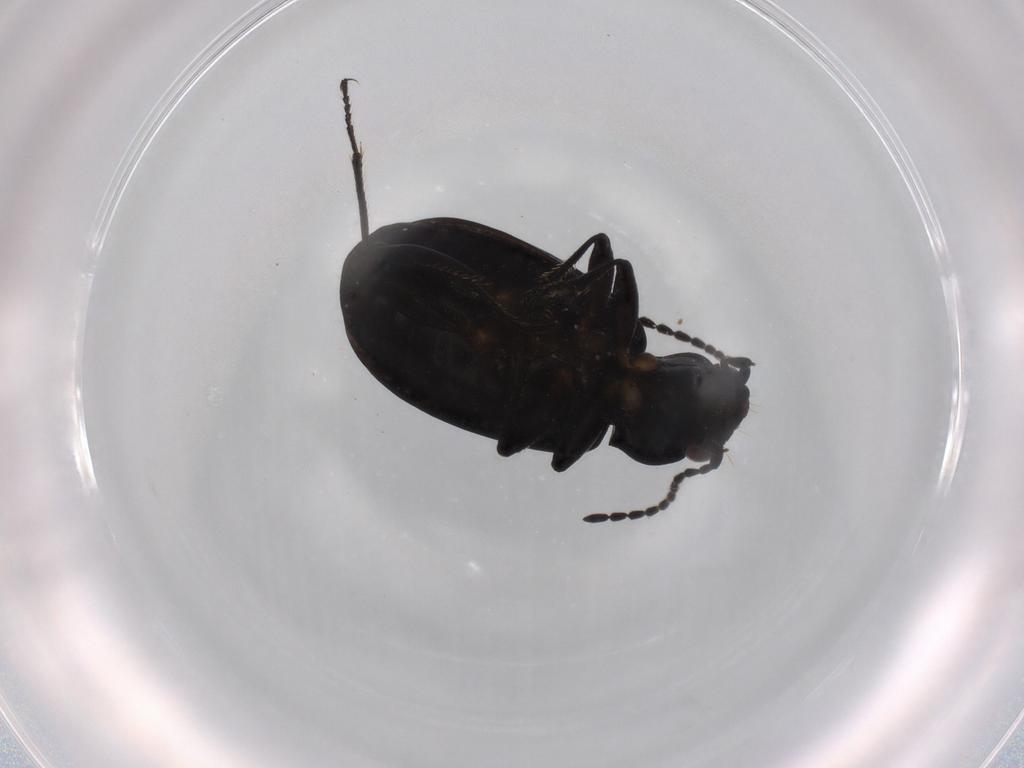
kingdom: Animalia
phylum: Arthropoda
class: Insecta
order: Coleoptera
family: Carabidae
